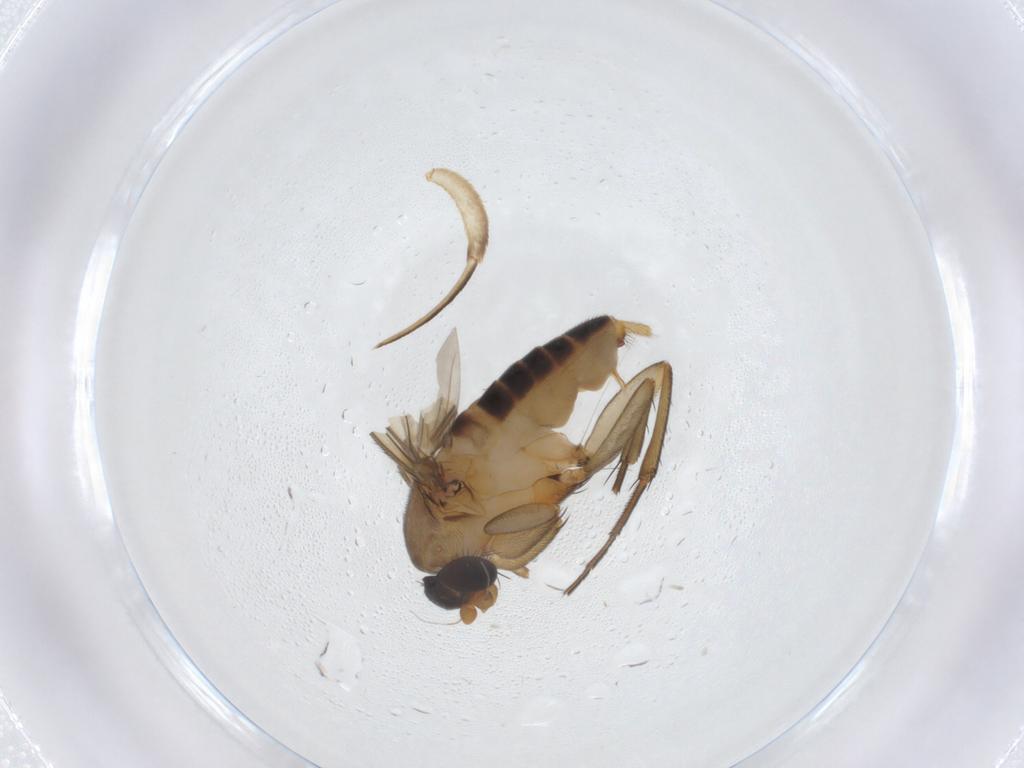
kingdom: Animalia
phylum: Arthropoda
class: Insecta
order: Diptera
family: Phoridae
